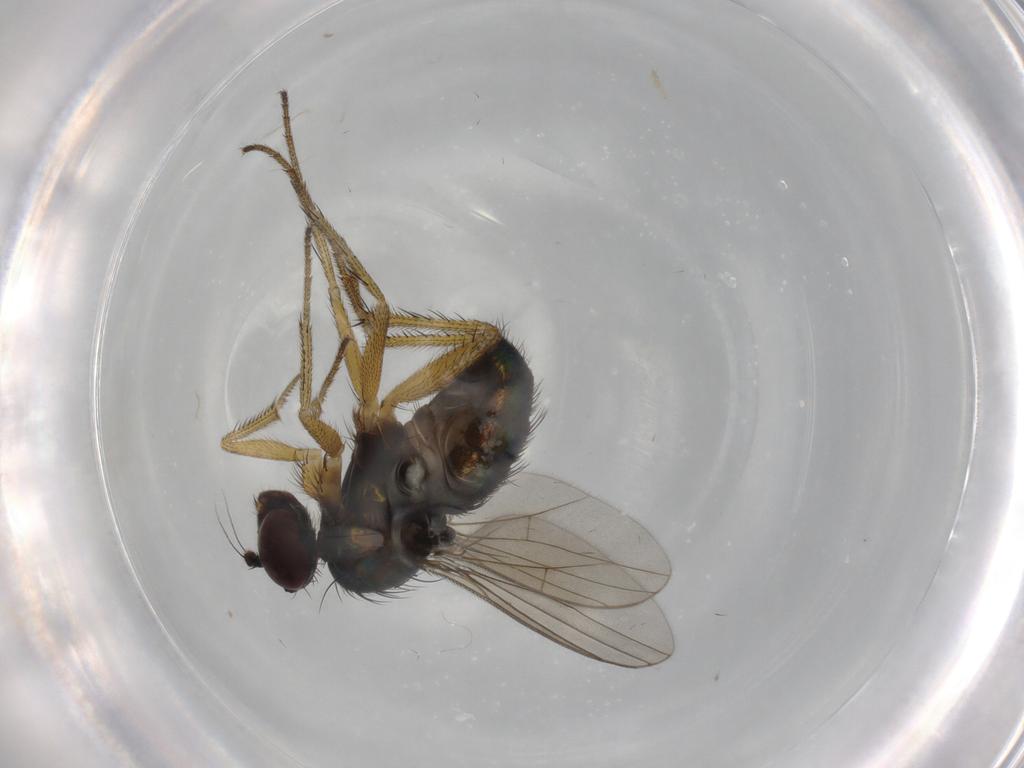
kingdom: Animalia
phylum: Arthropoda
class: Insecta
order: Diptera
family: Dolichopodidae
